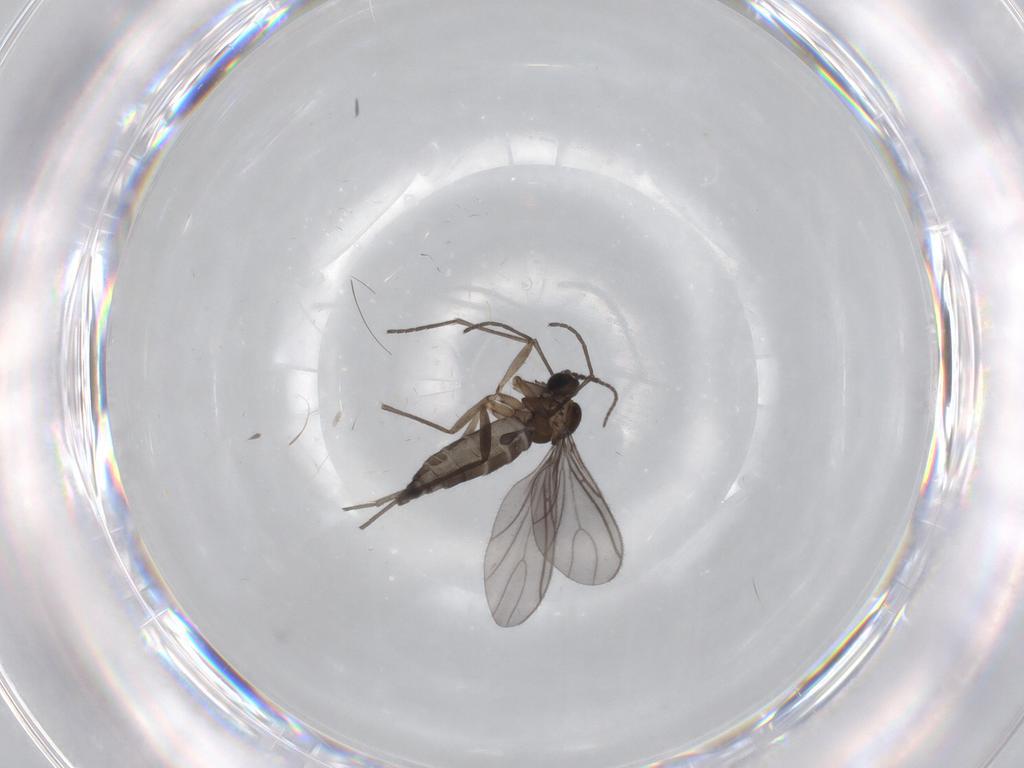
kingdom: Animalia
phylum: Arthropoda
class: Insecta
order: Diptera
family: Sciaridae
